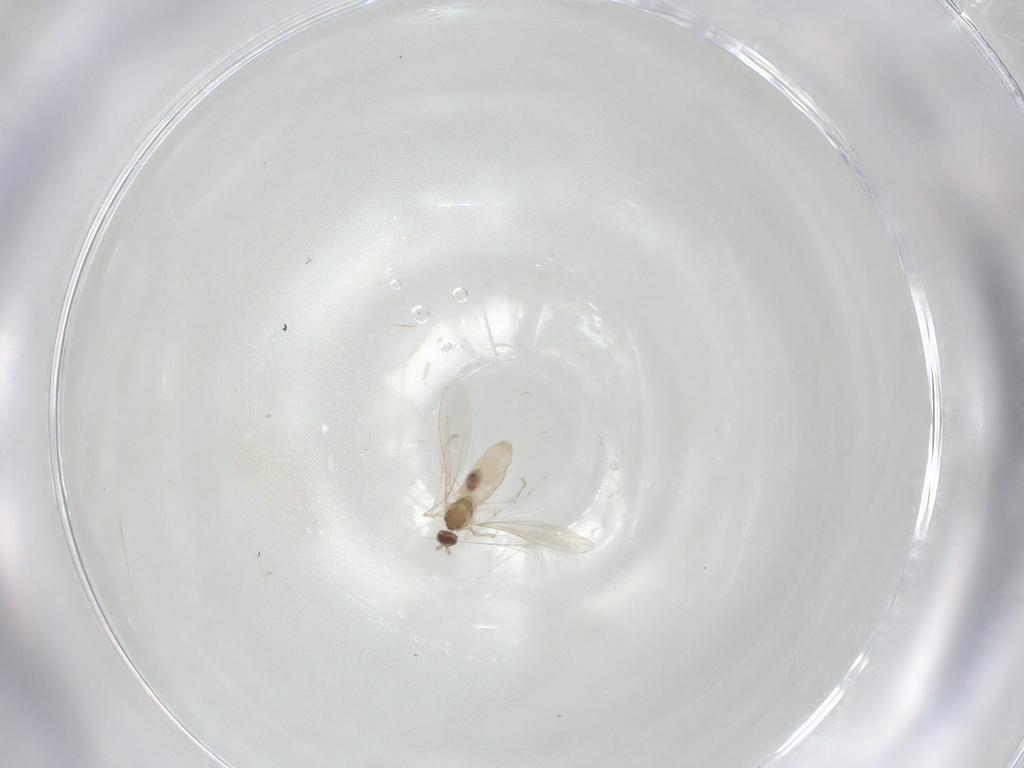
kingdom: Animalia
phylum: Arthropoda
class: Insecta
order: Diptera
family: Cecidomyiidae
